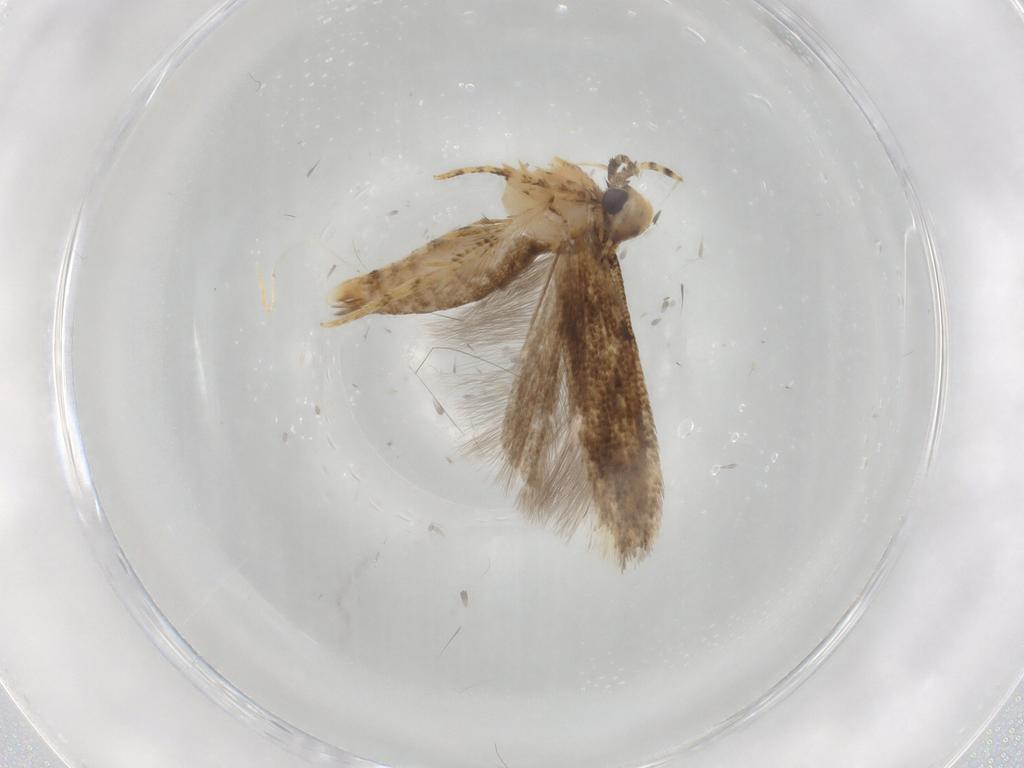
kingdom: Animalia
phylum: Arthropoda
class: Insecta
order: Lepidoptera
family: Gelechiidae
